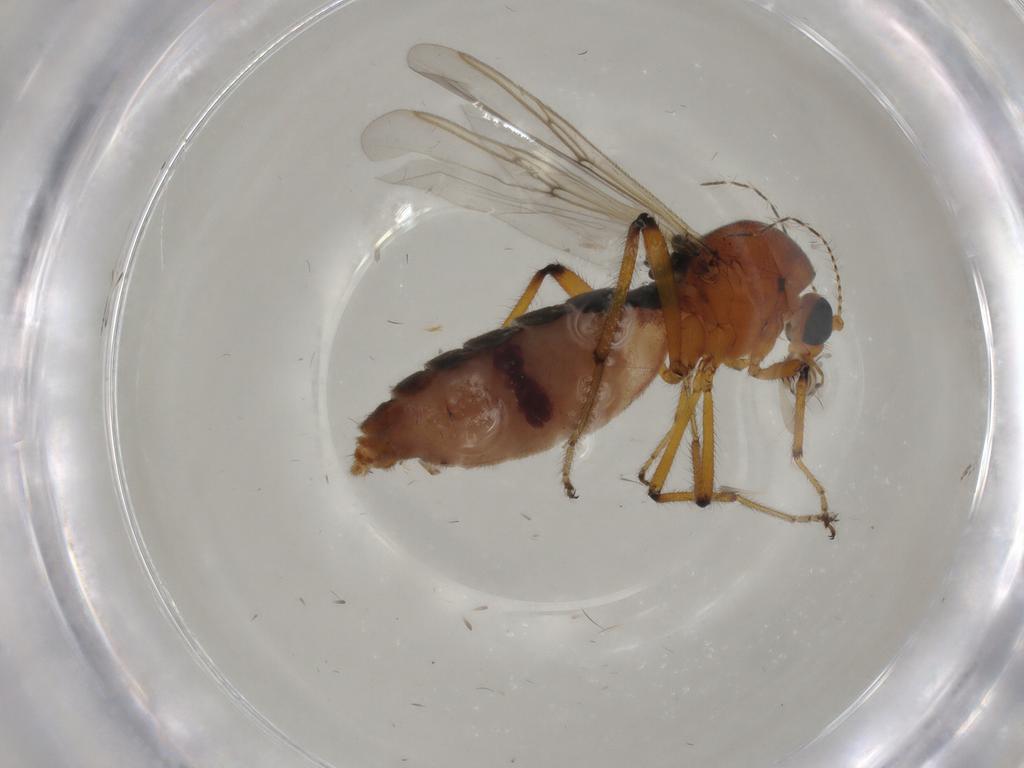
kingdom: Animalia
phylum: Arthropoda
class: Insecta
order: Diptera
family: Ceratopogonidae
